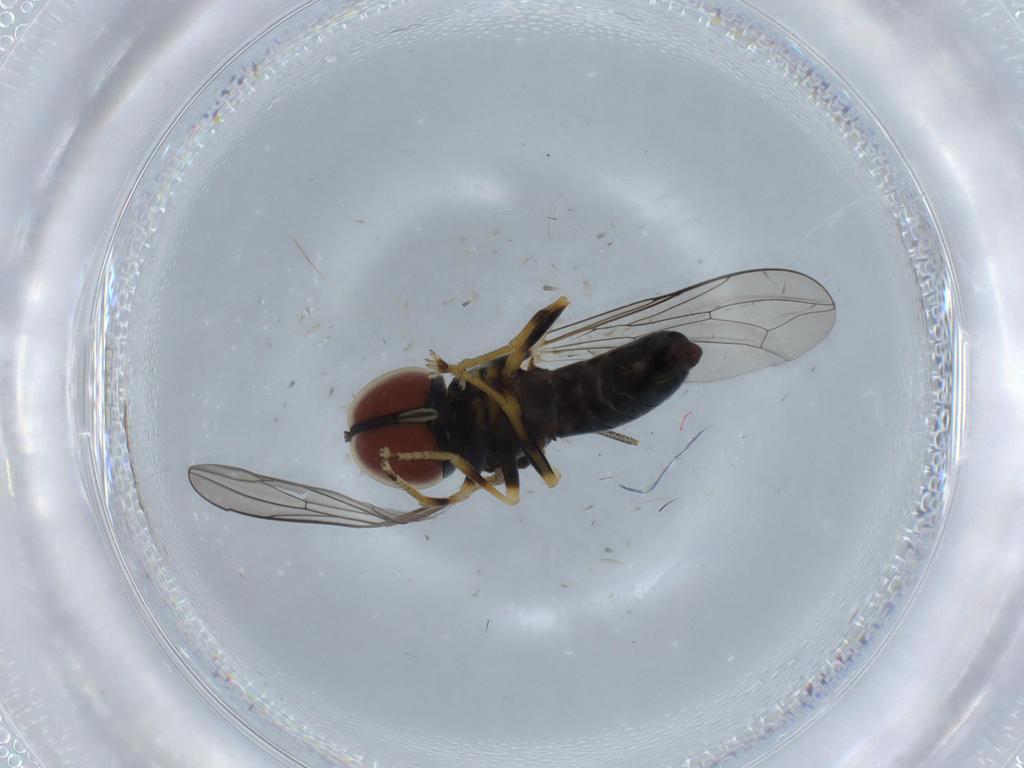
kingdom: Animalia
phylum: Arthropoda
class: Insecta
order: Diptera
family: Pipunculidae
